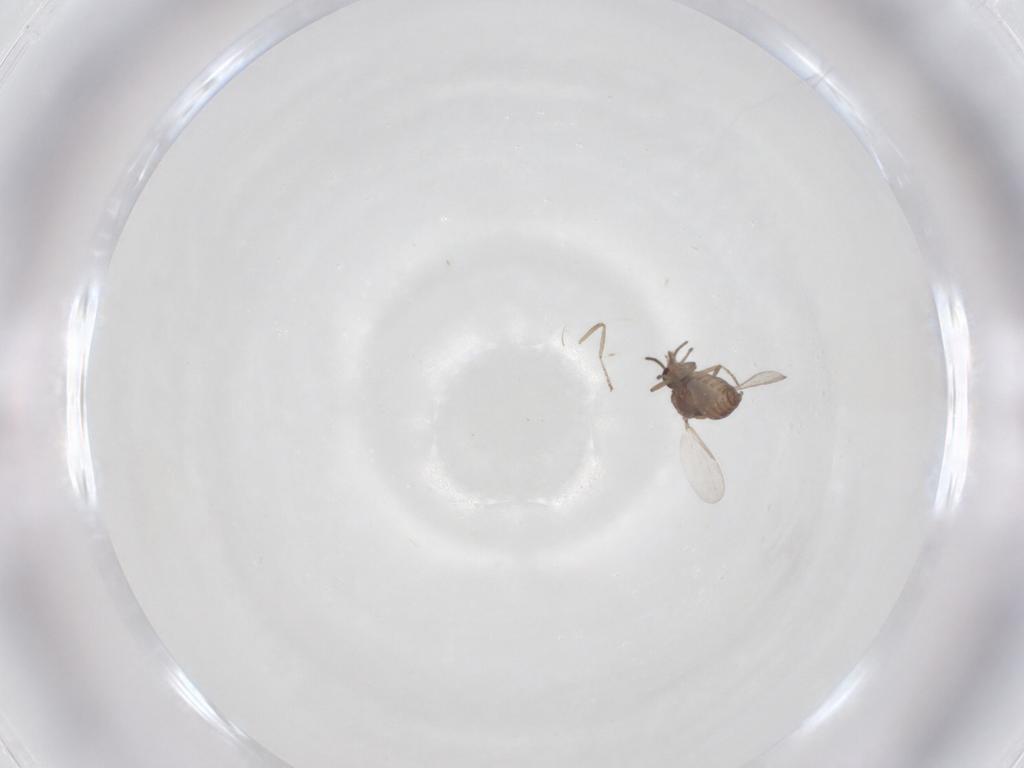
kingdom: Animalia
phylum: Arthropoda
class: Insecta
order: Diptera
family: Ceratopogonidae
